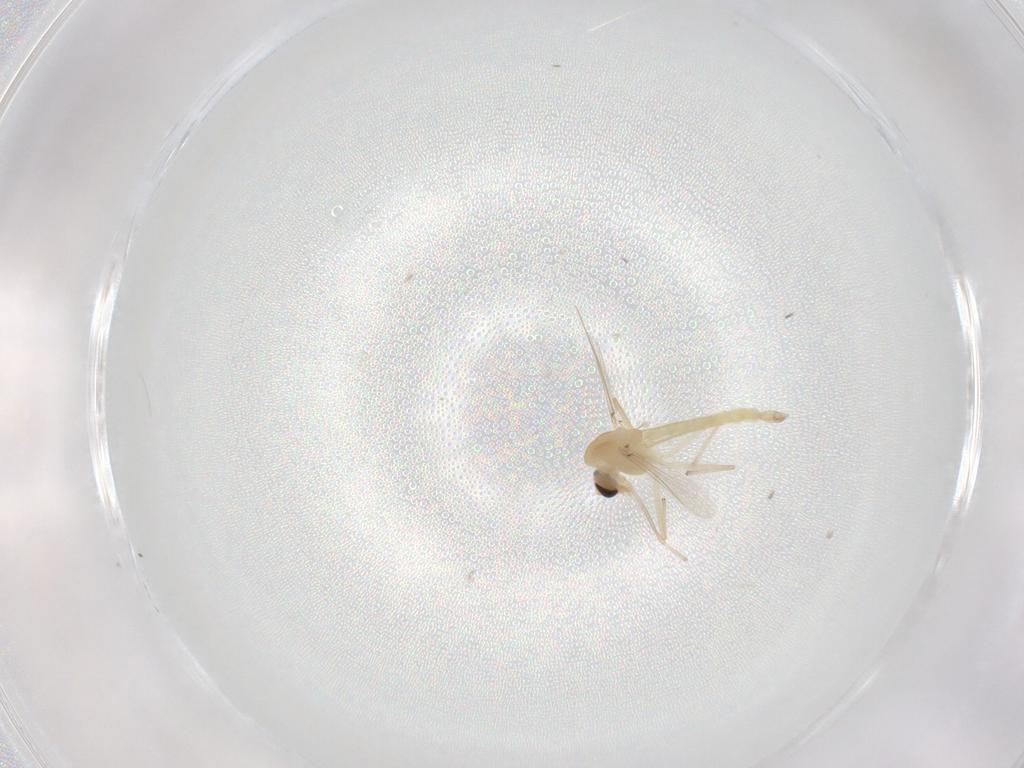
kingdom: Animalia
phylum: Arthropoda
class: Insecta
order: Diptera
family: Chironomidae
